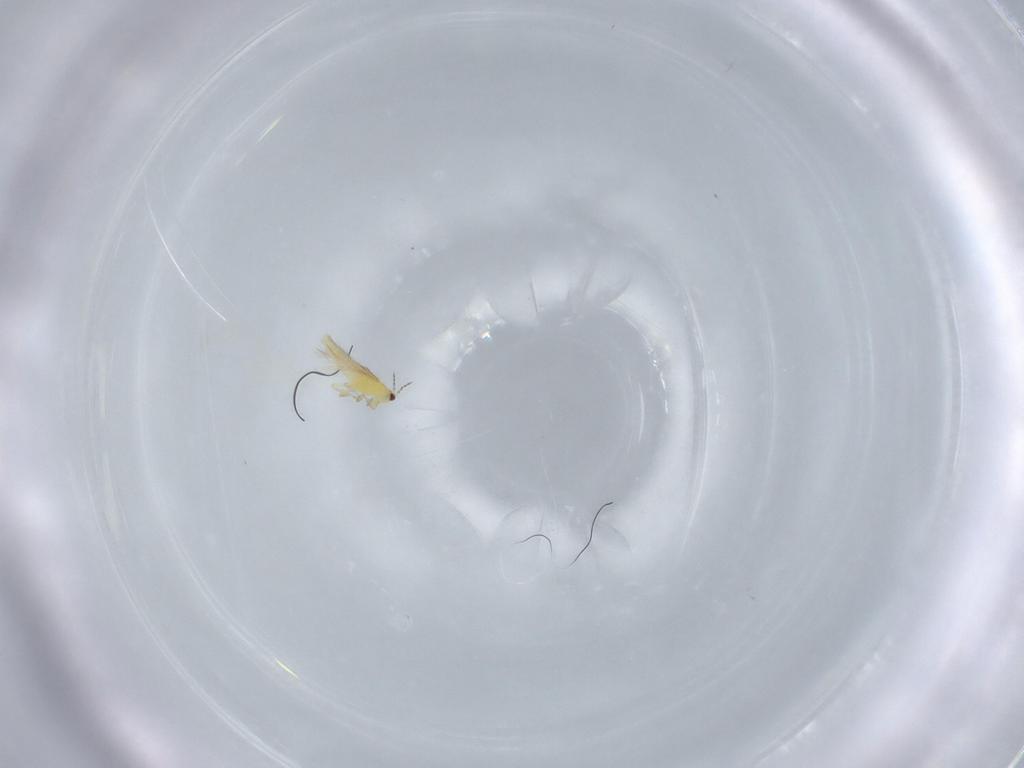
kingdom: Animalia
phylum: Arthropoda
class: Insecta
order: Thysanoptera
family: Thripidae
